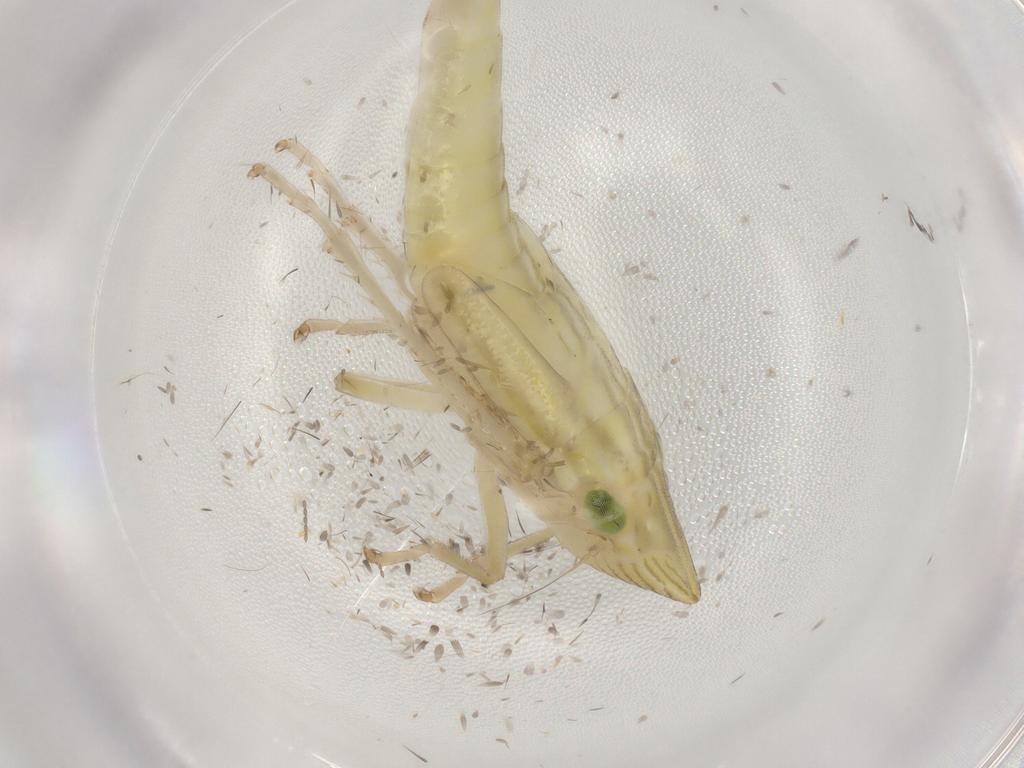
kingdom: Animalia
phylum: Arthropoda
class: Insecta
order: Hemiptera
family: Cicadellidae
